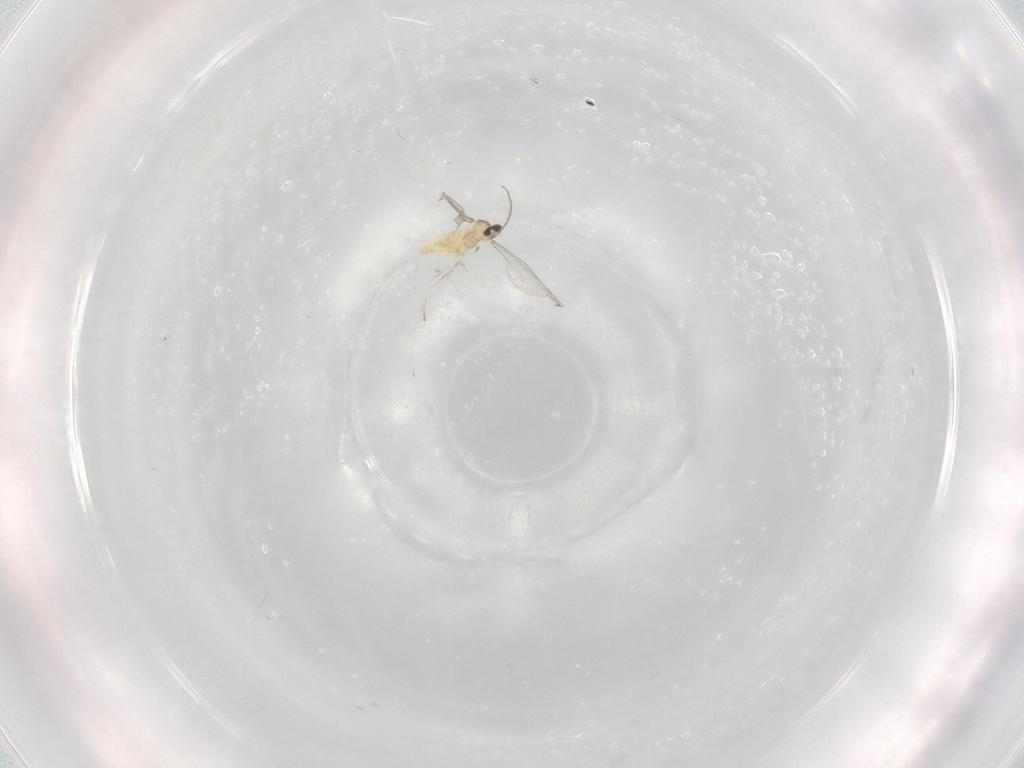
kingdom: Animalia
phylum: Arthropoda
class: Insecta
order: Diptera
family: Cecidomyiidae
